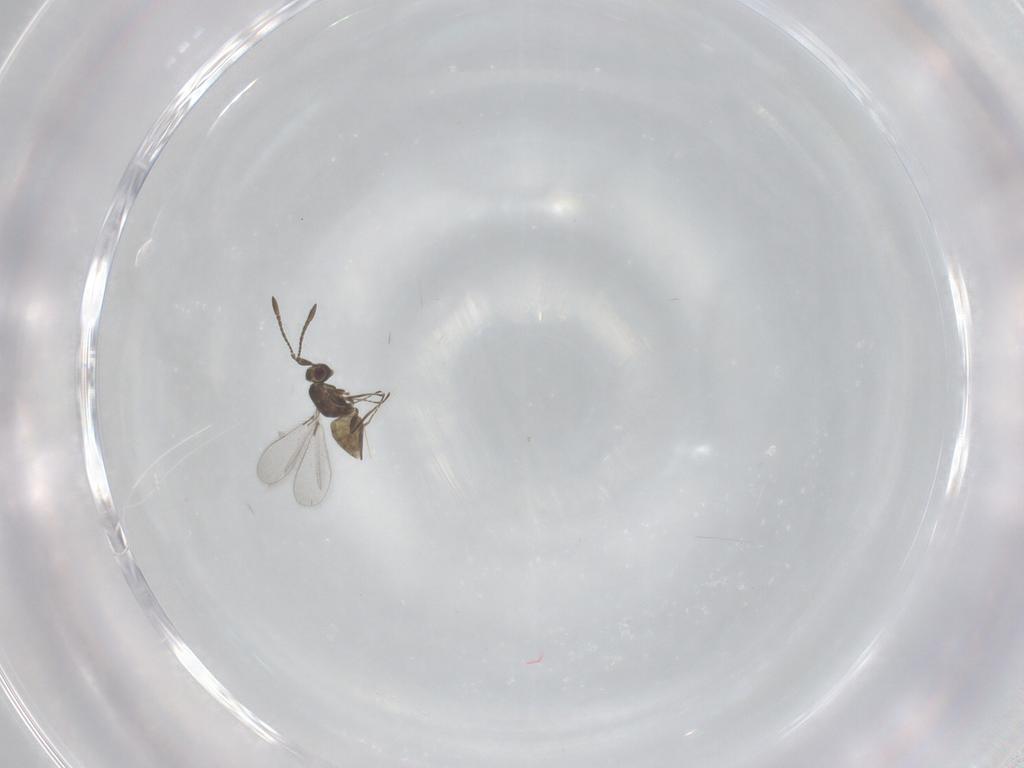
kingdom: Animalia
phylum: Arthropoda
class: Insecta
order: Hymenoptera
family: Mymaridae
